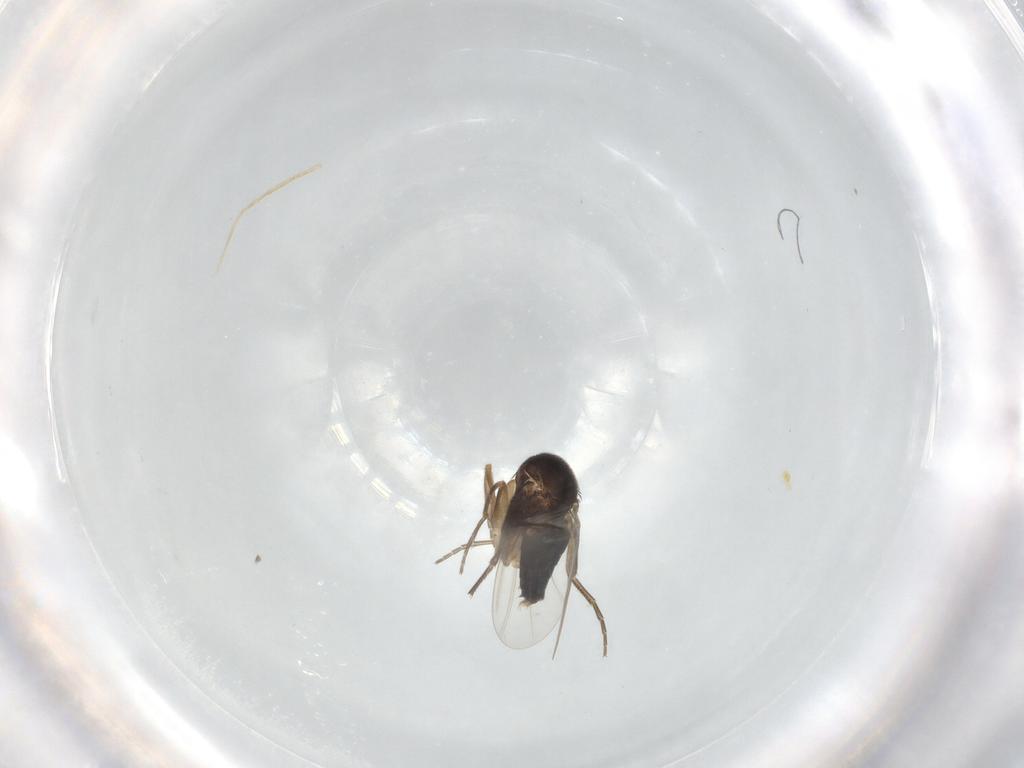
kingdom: Animalia
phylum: Arthropoda
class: Insecta
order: Diptera
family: Phoridae
